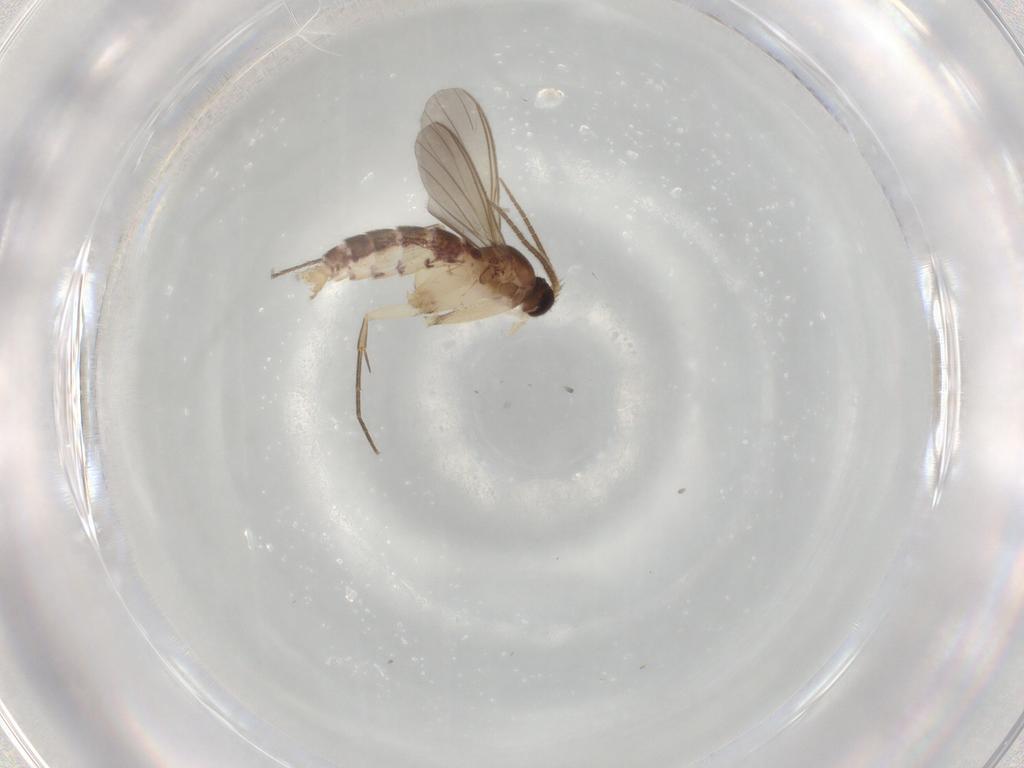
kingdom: Animalia
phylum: Arthropoda
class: Insecta
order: Diptera
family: Mycetophilidae
